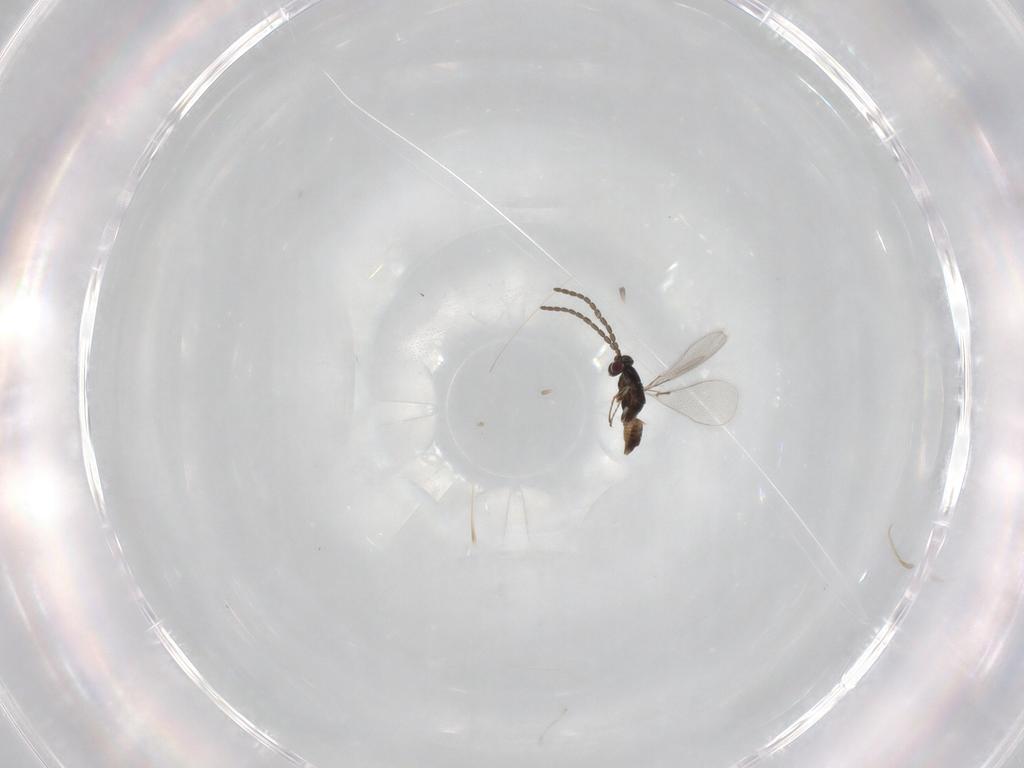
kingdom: Animalia
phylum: Arthropoda
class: Insecta
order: Hymenoptera
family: Mymaridae
